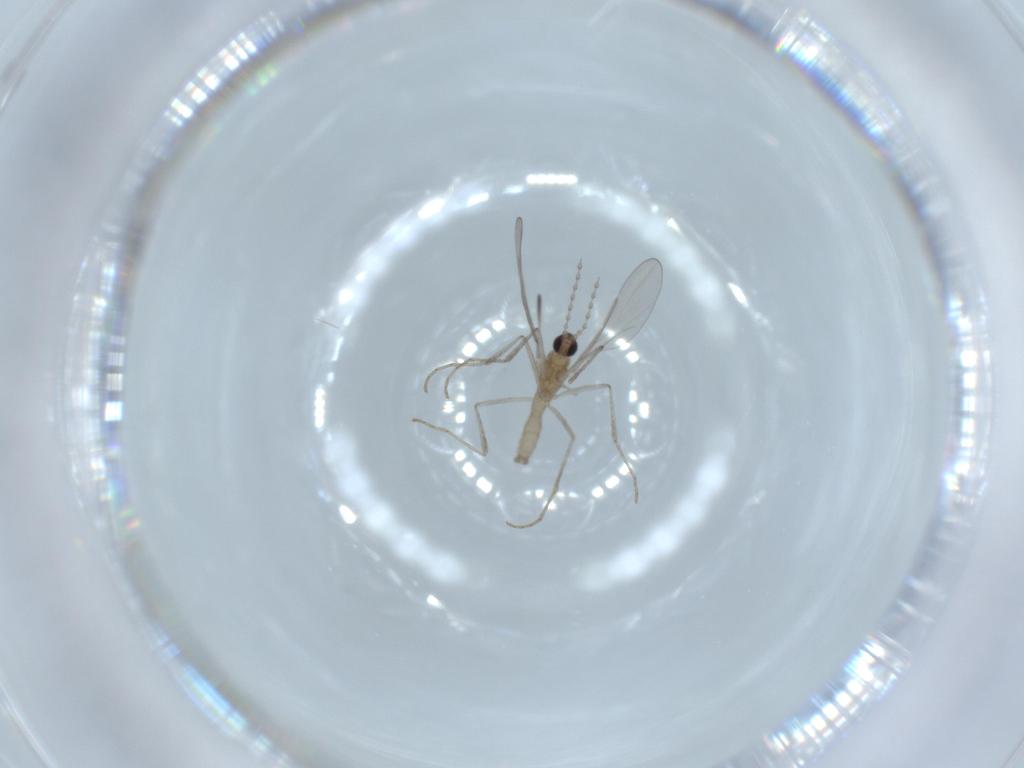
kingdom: Animalia
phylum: Arthropoda
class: Insecta
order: Diptera
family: Cecidomyiidae
